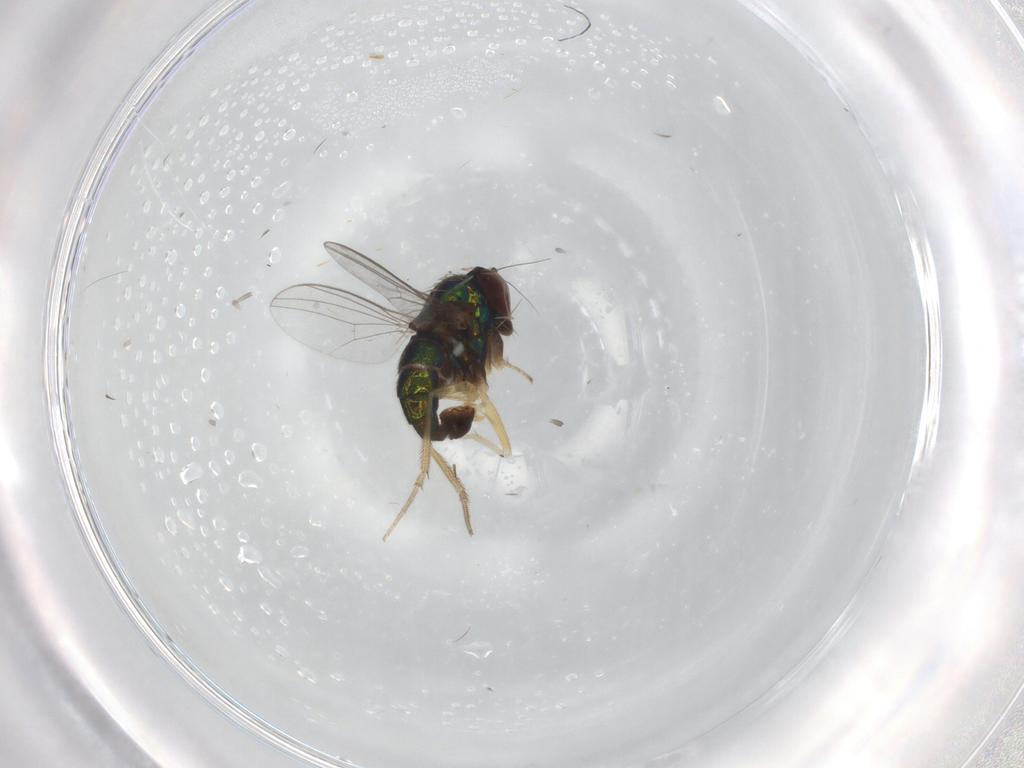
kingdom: Animalia
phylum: Arthropoda
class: Insecta
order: Diptera
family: Dolichopodidae
